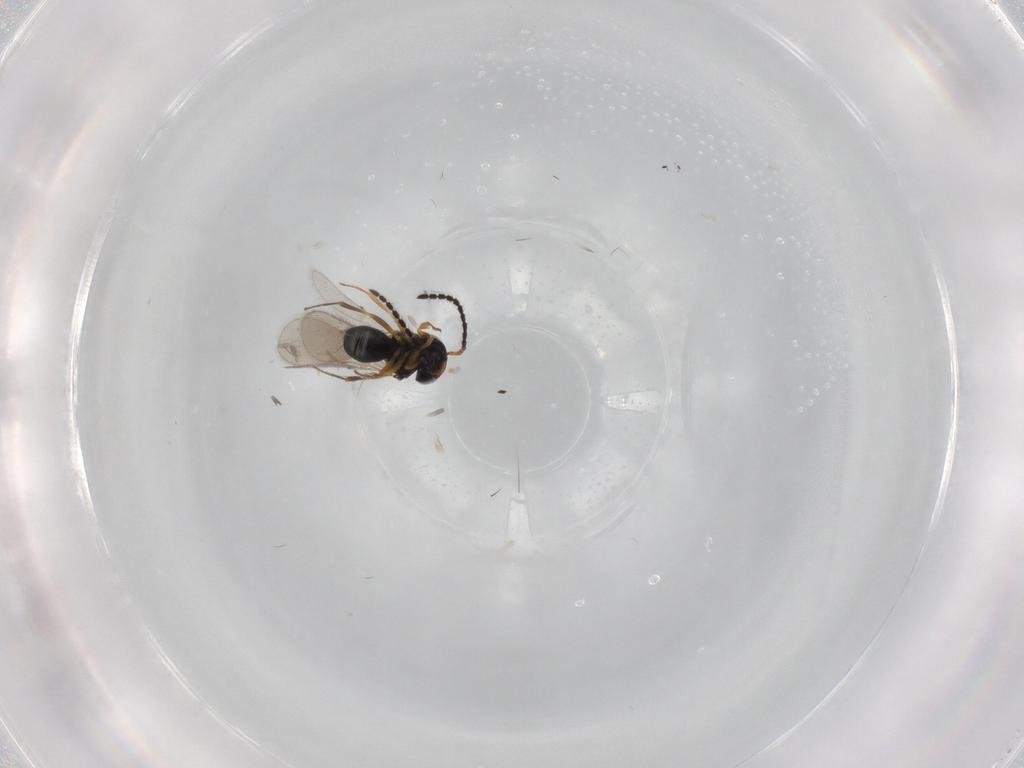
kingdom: Animalia
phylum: Arthropoda
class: Insecta
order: Hymenoptera
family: Scelionidae
